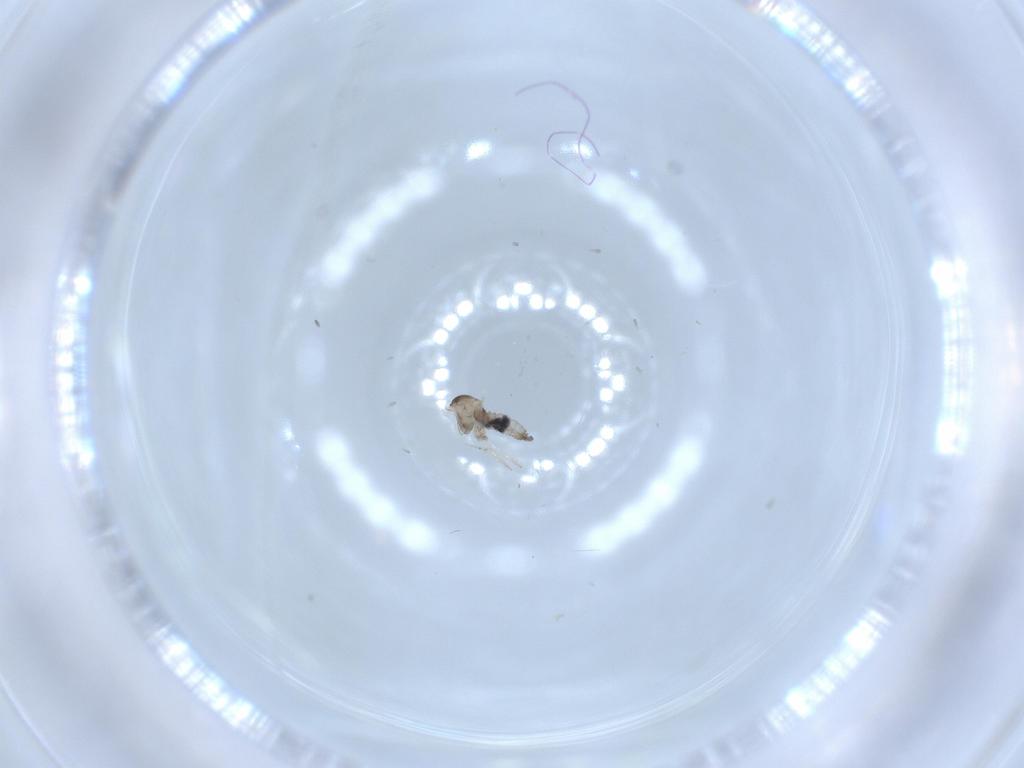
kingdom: Animalia
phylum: Arthropoda
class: Insecta
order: Diptera
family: Cecidomyiidae
